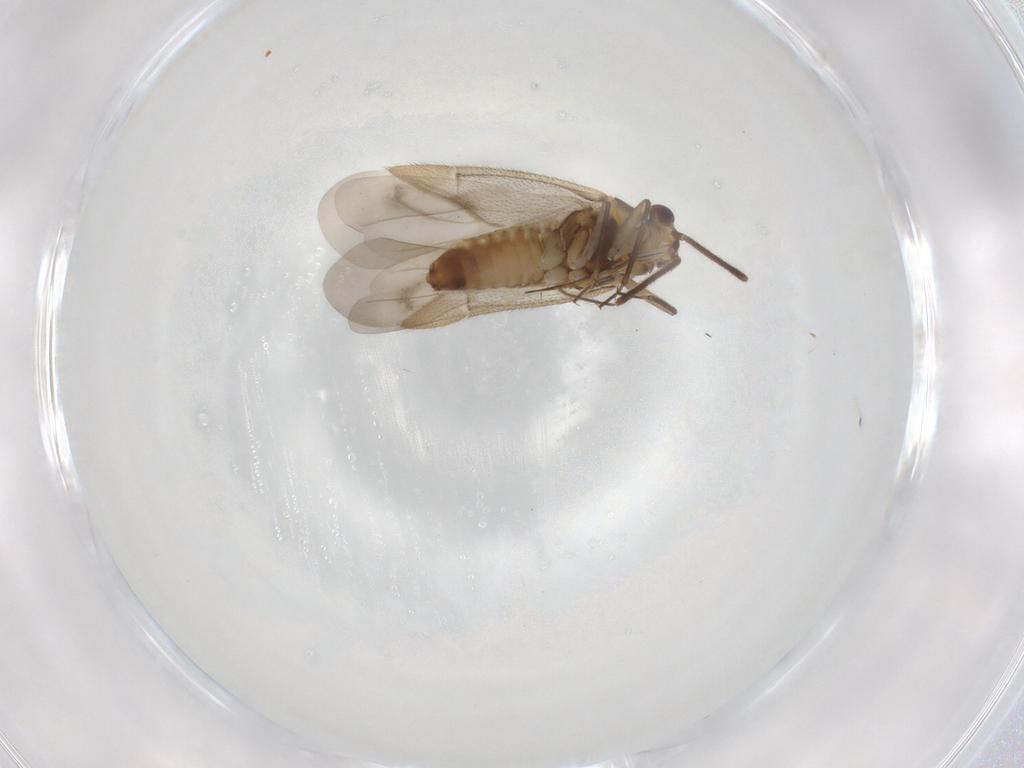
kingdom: Animalia
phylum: Arthropoda
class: Insecta
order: Hemiptera
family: Miridae
